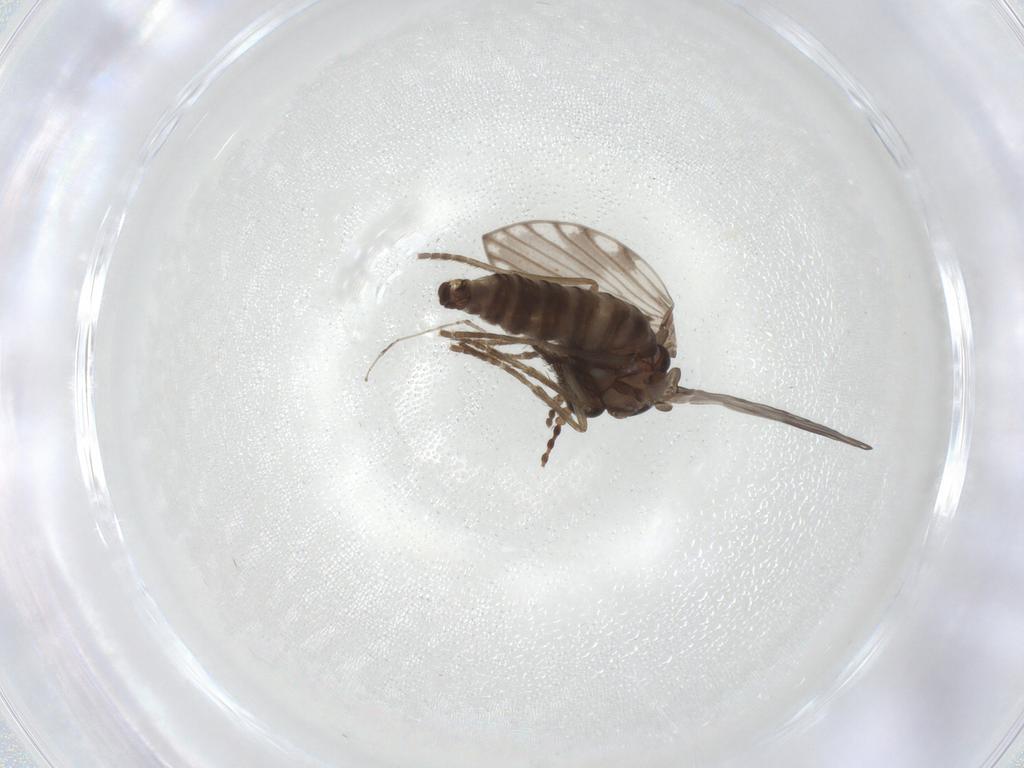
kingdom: Animalia
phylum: Arthropoda
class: Insecta
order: Diptera
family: Psychodidae
